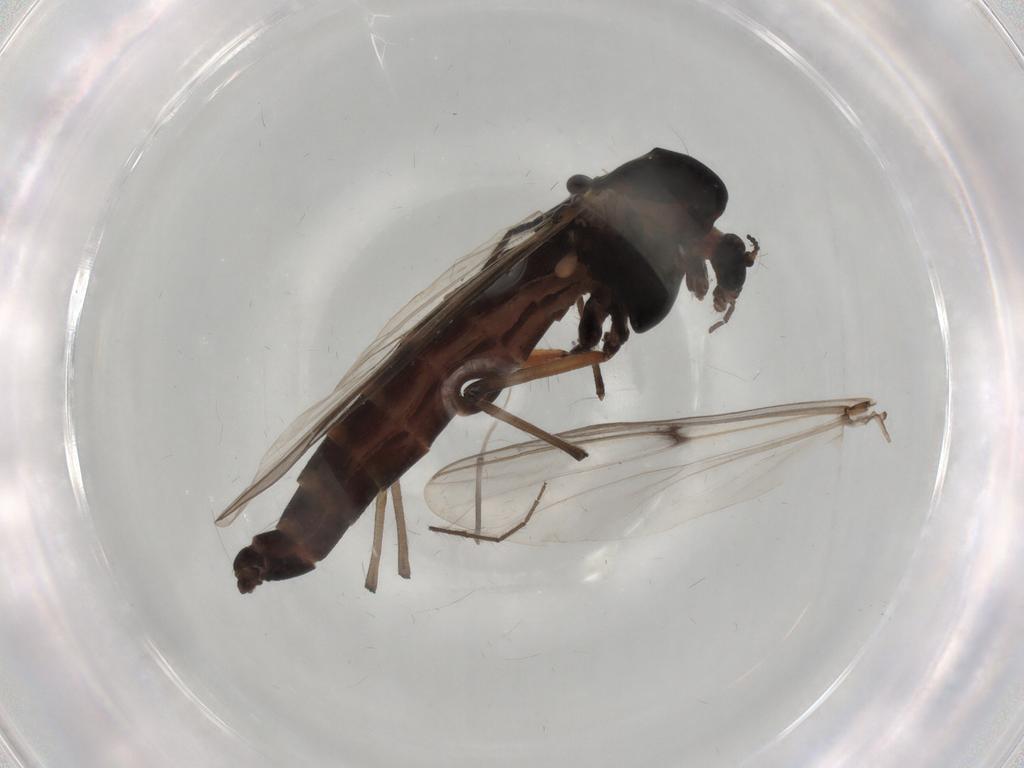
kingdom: Animalia
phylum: Arthropoda
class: Insecta
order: Diptera
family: Chironomidae
